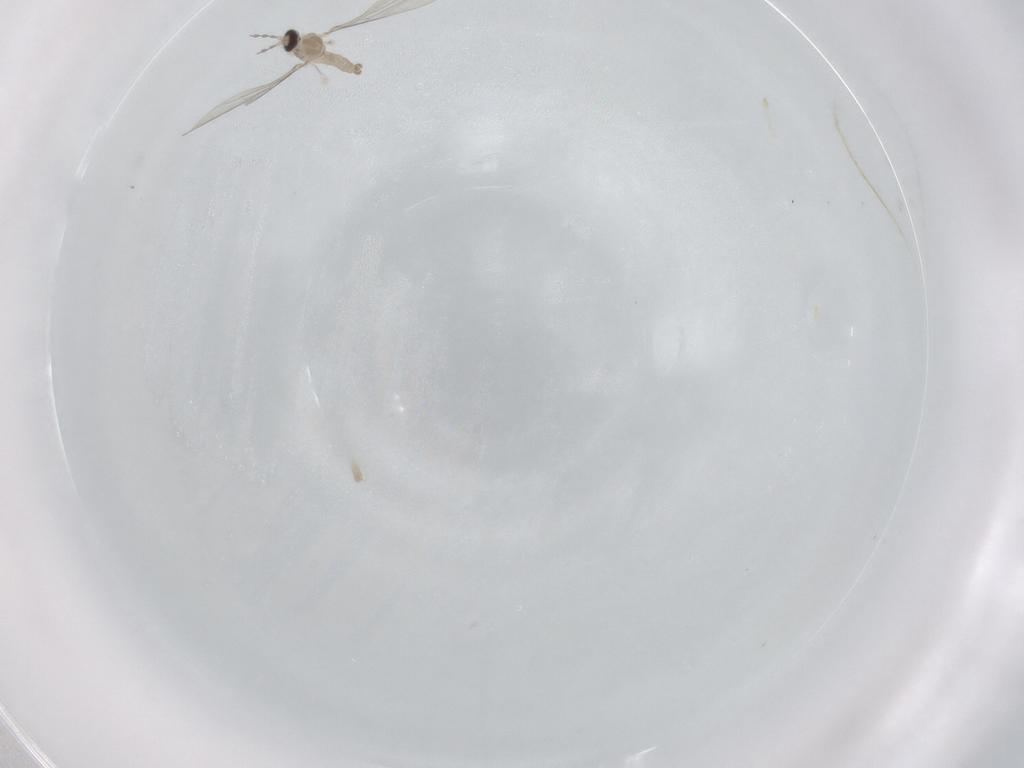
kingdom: Animalia
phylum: Arthropoda
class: Insecta
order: Diptera
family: Cecidomyiidae
